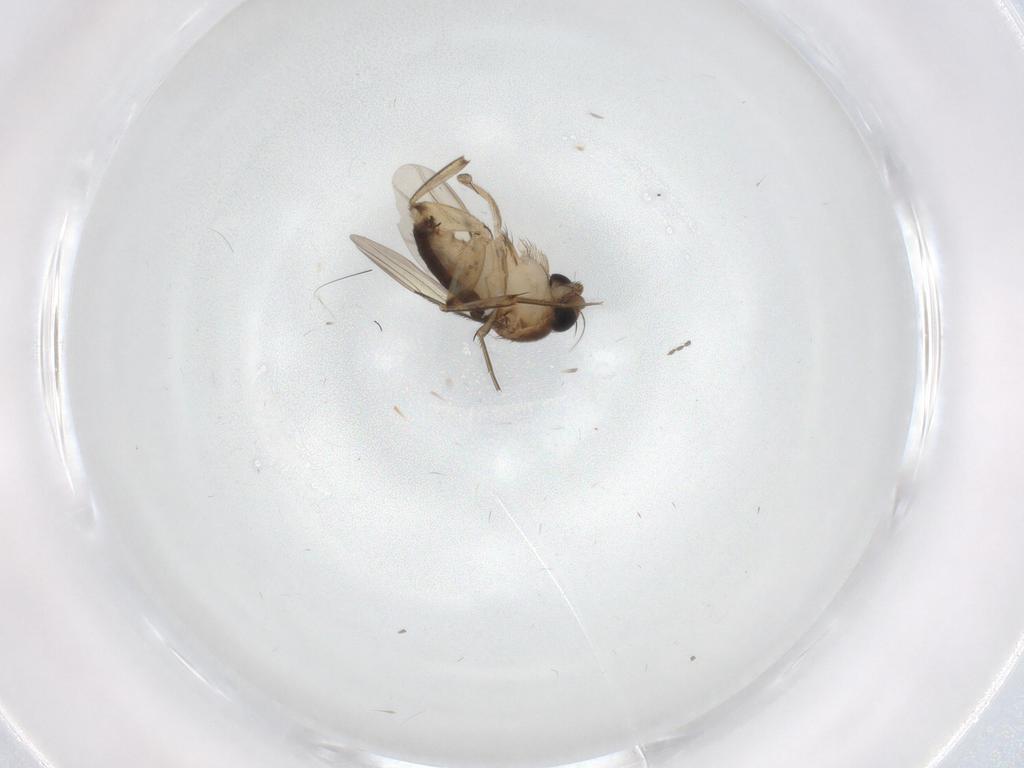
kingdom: Animalia
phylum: Arthropoda
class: Insecta
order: Diptera
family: Phoridae
